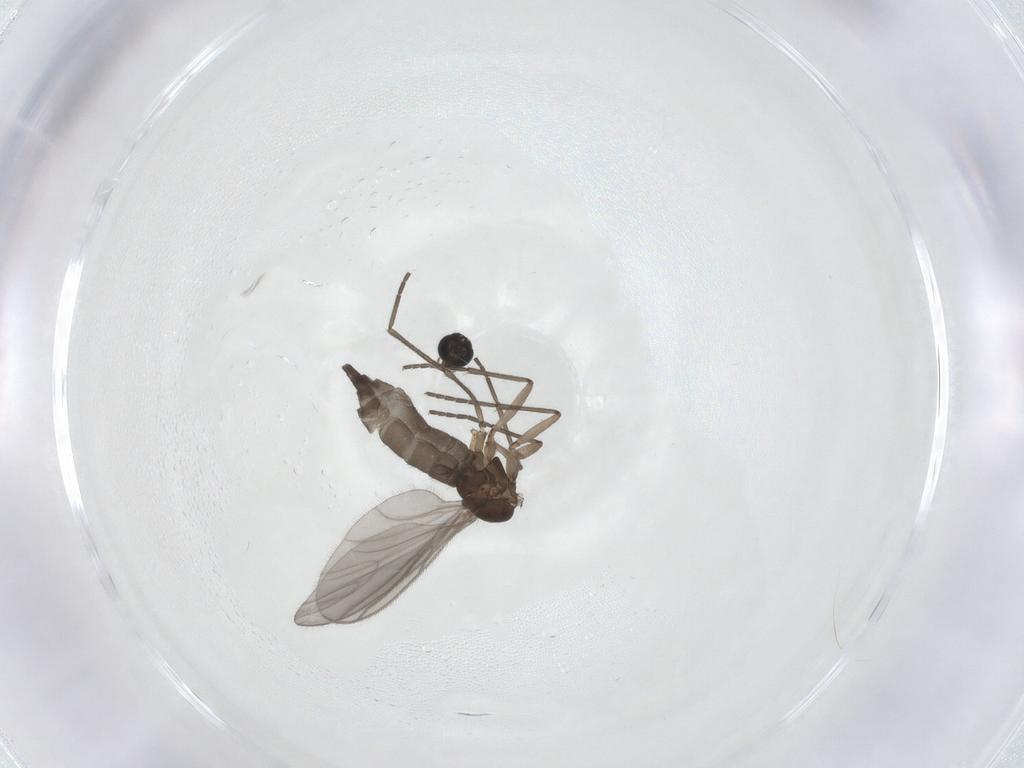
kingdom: Animalia
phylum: Arthropoda
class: Insecta
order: Diptera
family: Sciaridae
